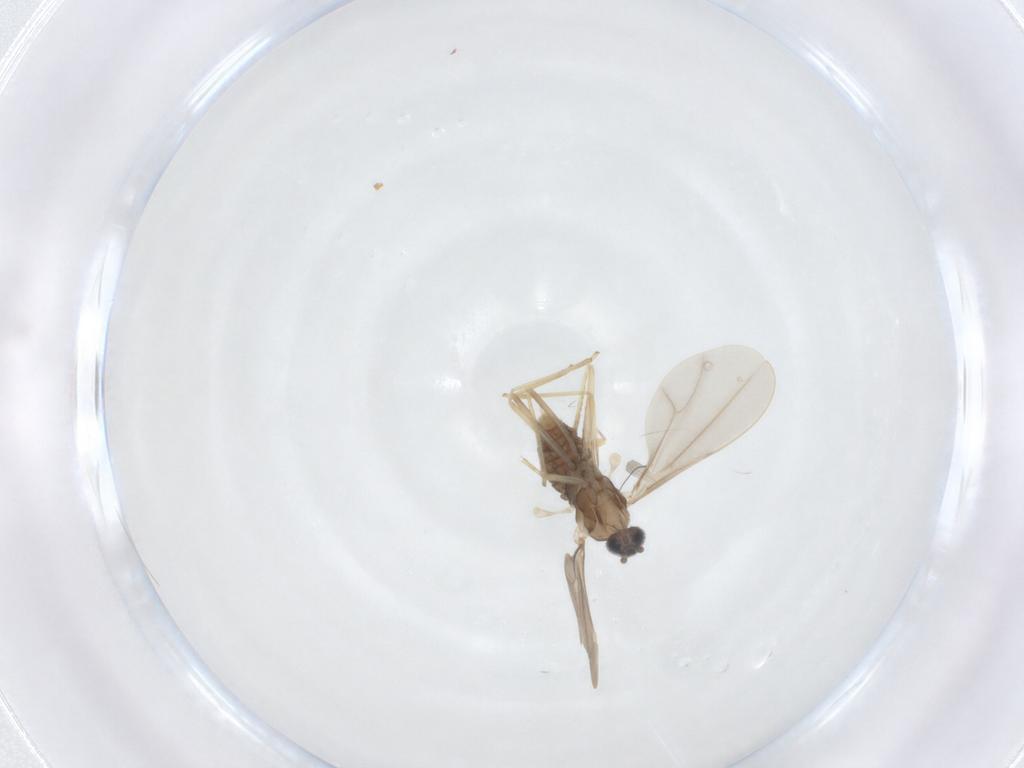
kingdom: Animalia
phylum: Arthropoda
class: Insecta
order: Diptera
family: Cecidomyiidae
